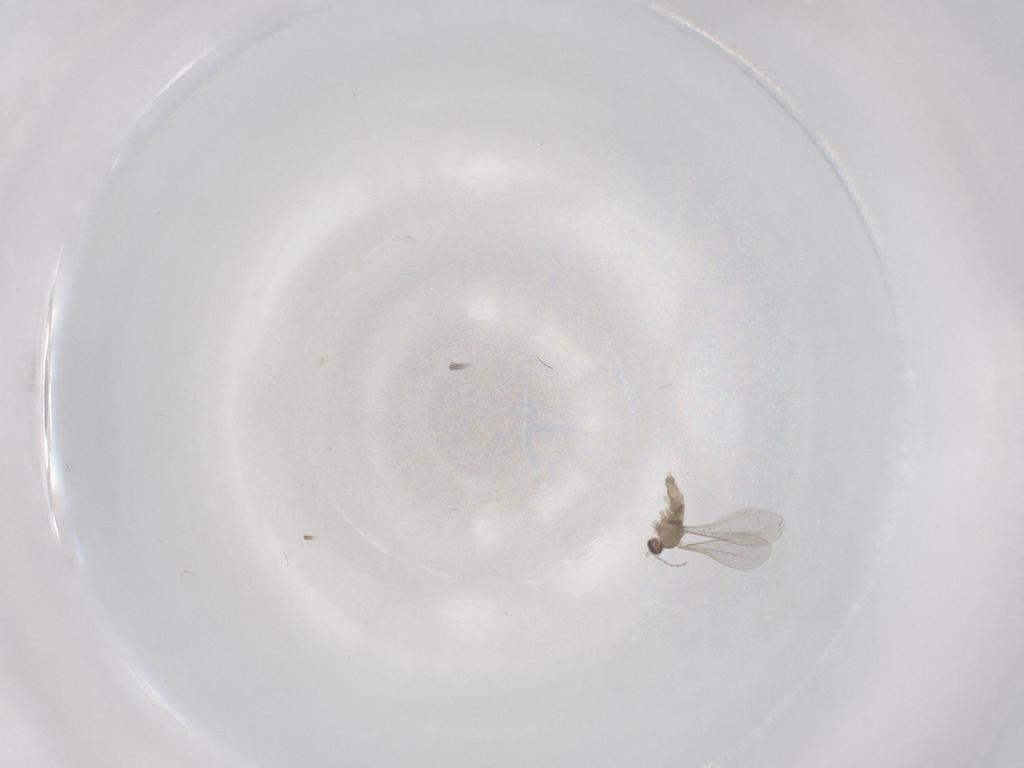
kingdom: Animalia
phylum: Arthropoda
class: Insecta
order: Diptera
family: Cecidomyiidae
